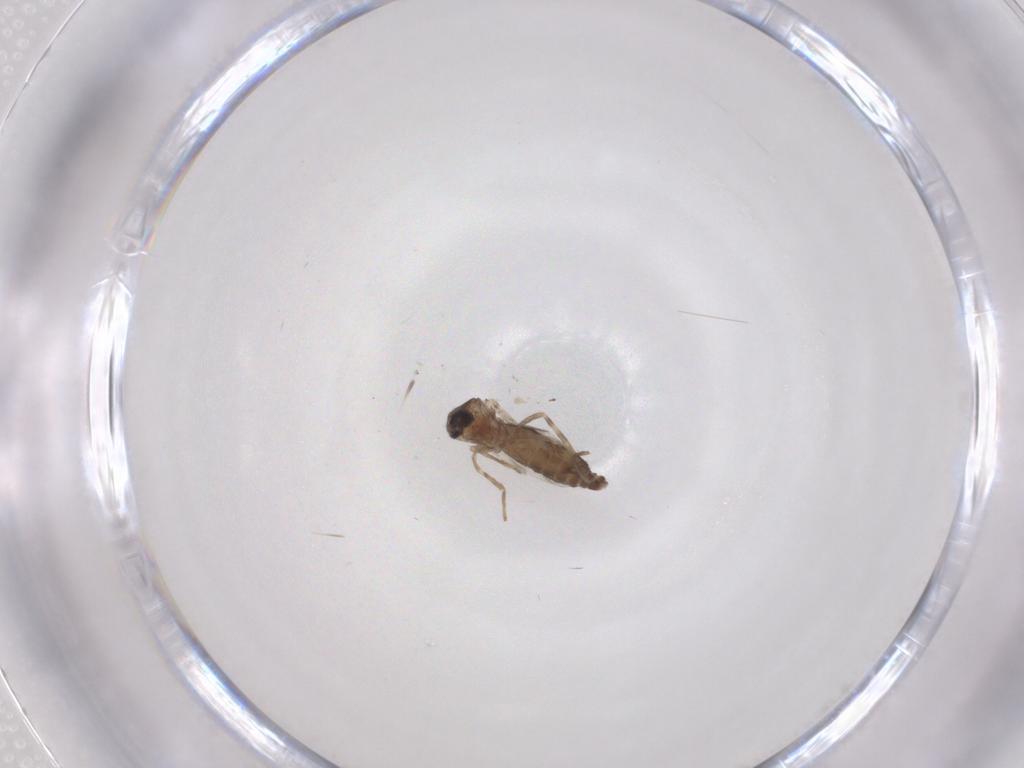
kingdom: Animalia
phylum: Arthropoda
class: Insecta
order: Diptera
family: Ceratopogonidae
